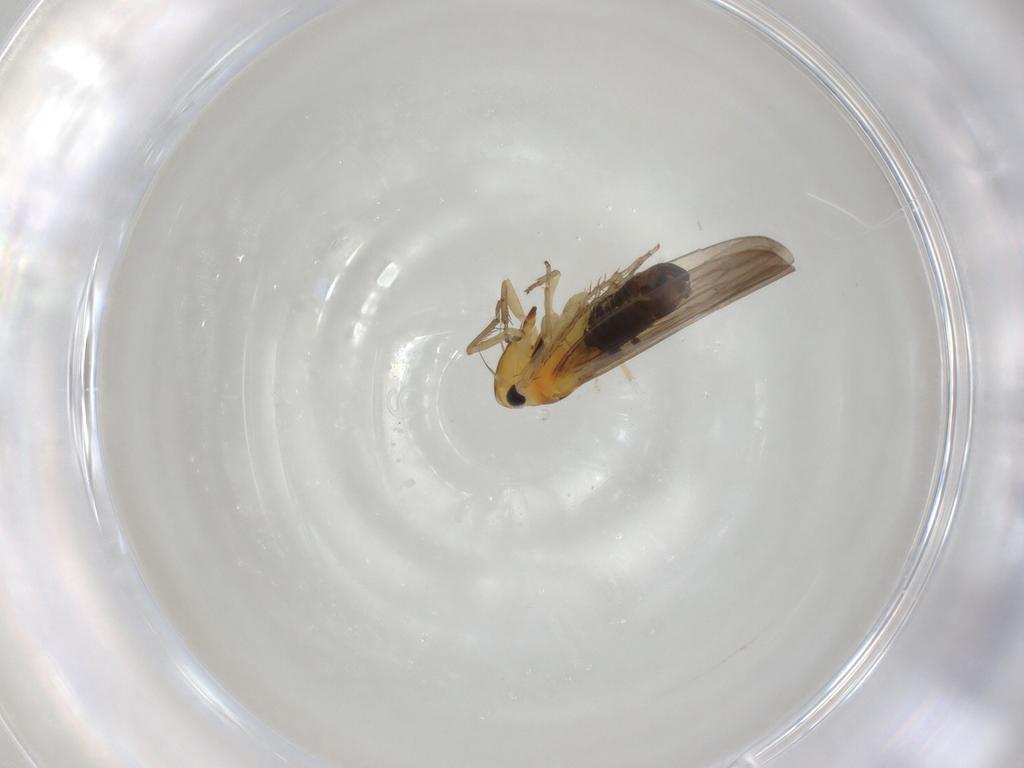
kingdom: Animalia
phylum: Arthropoda
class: Insecta
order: Hemiptera
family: Cicadellidae
